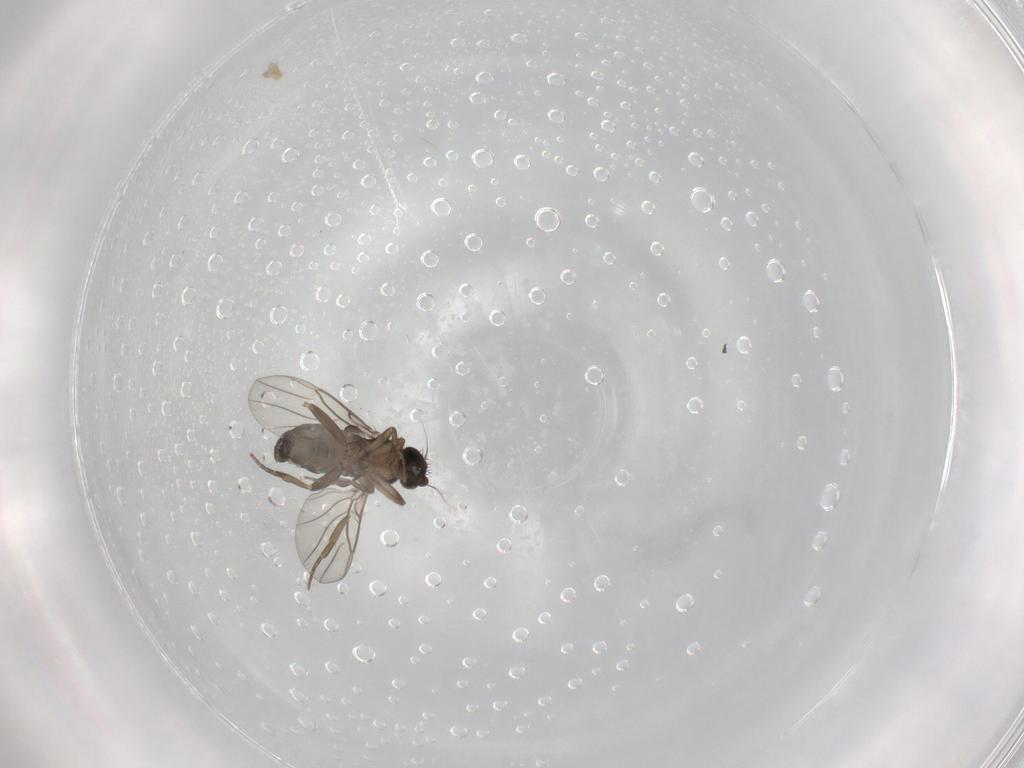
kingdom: Animalia
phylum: Arthropoda
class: Insecta
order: Diptera
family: Phoridae
